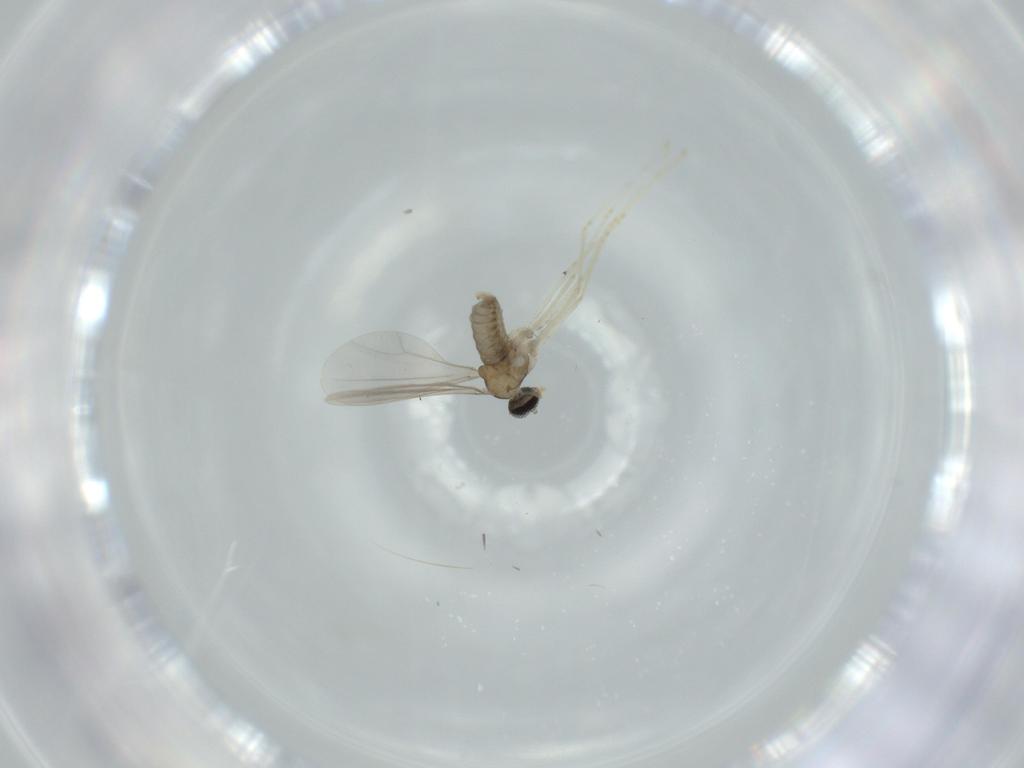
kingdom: Animalia
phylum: Arthropoda
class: Insecta
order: Diptera
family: Cecidomyiidae
